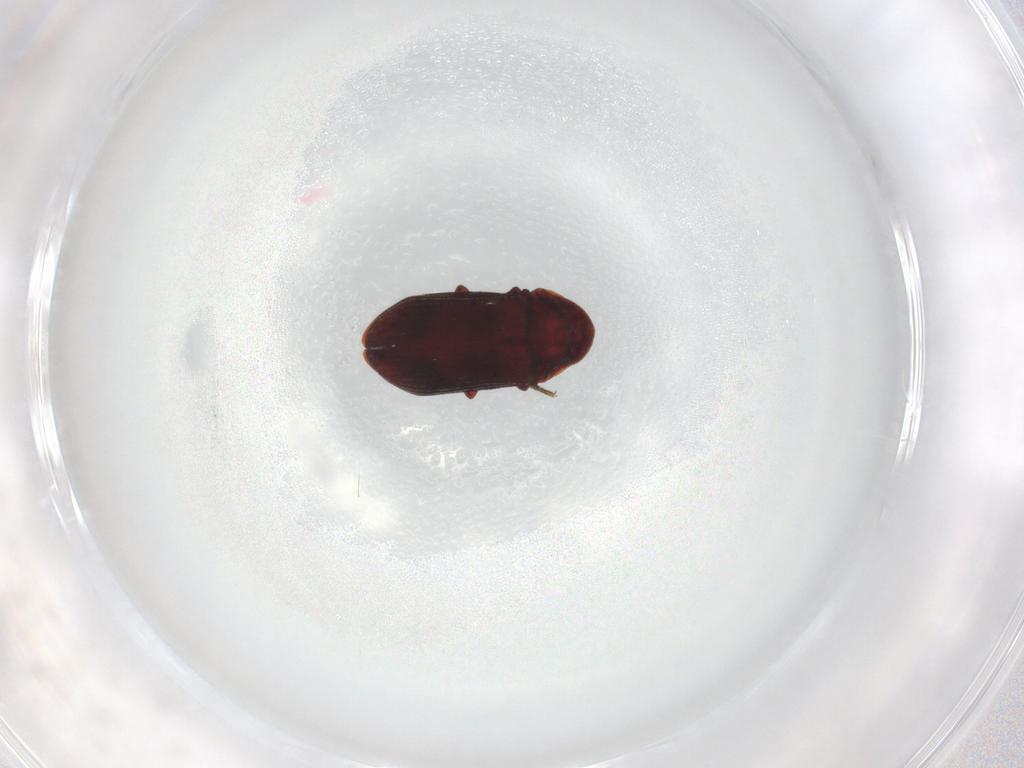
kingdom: Animalia
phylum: Arthropoda
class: Insecta
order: Coleoptera
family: Ptinidae
